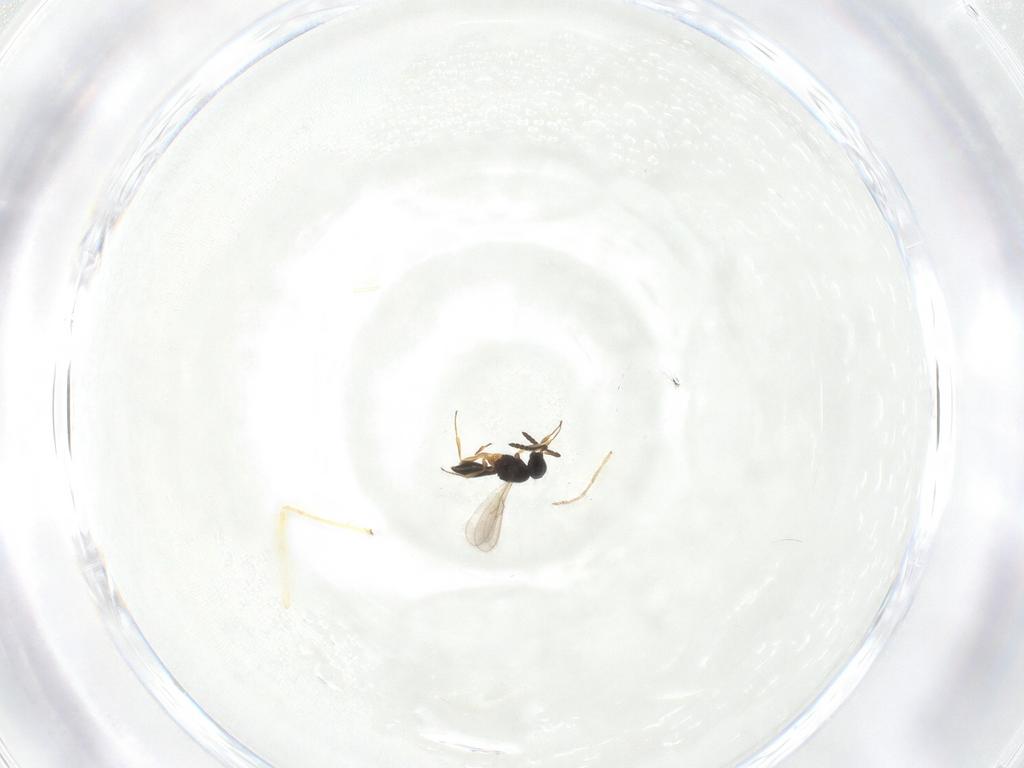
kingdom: Animalia
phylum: Arthropoda
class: Insecta
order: Hymenoptera
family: Scelionidae
